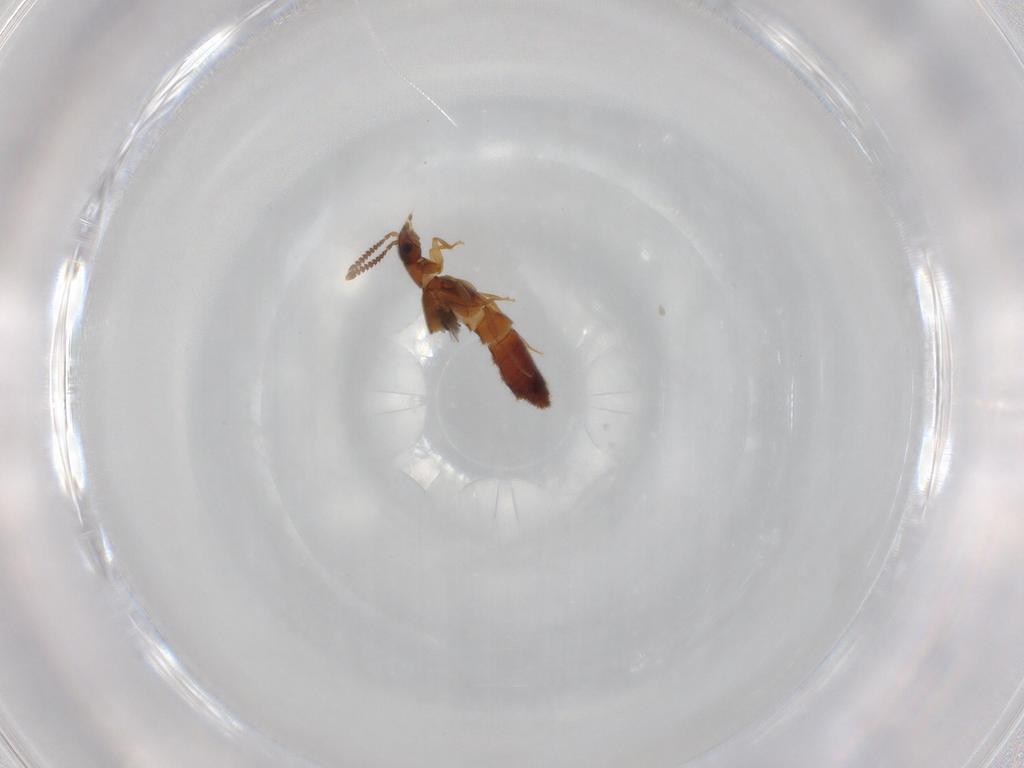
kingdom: Animalia
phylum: Arthropoda
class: Insecta
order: Coleoptera
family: Staphylinidae
